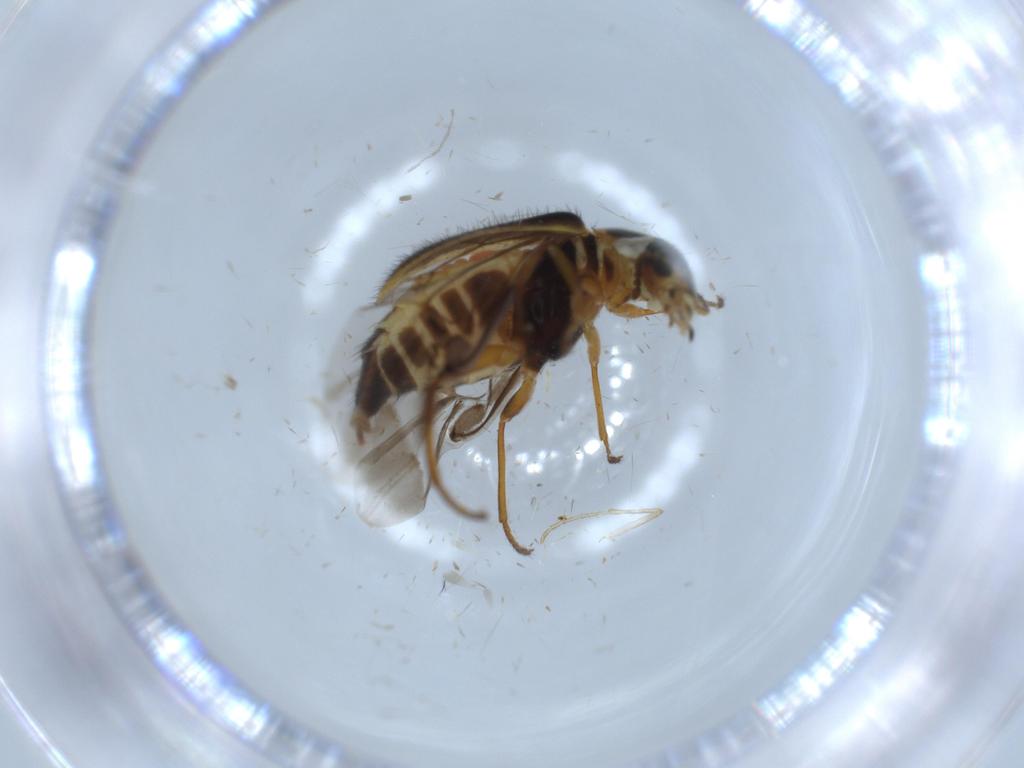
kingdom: Animalia
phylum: Arthropoda
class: Insecta
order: Coleoptera
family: Melyridae
